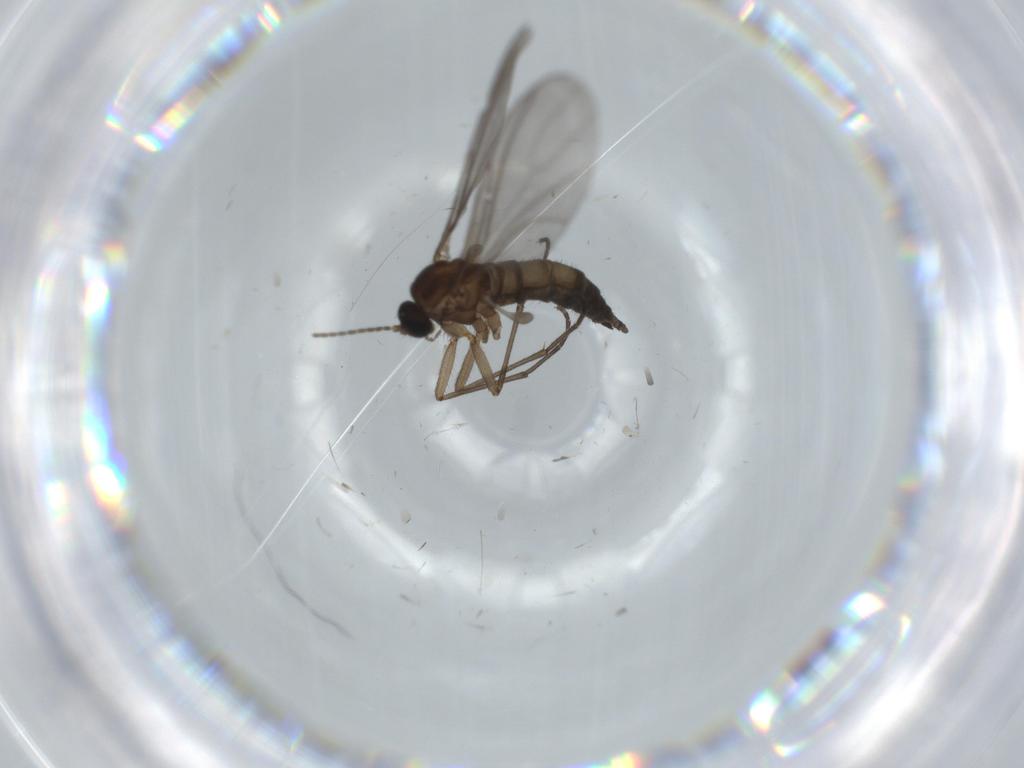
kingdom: Animalia
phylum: Arthropoda
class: Insecta
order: Diptera
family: Sciaridae
